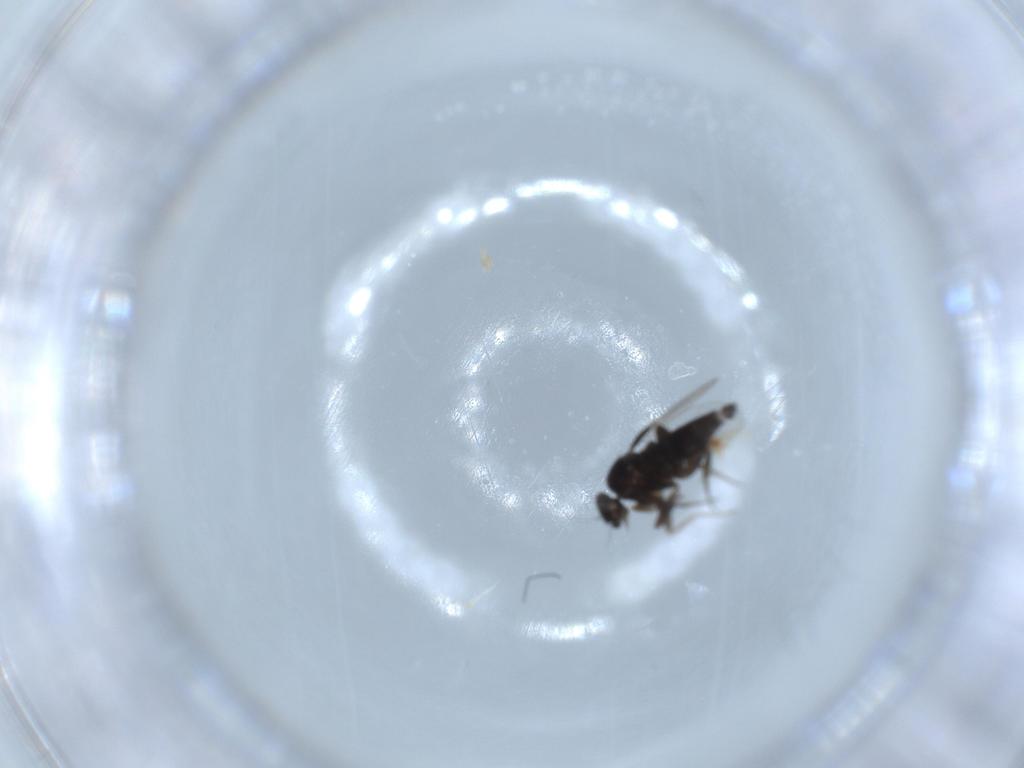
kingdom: Animalia
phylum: Arthropoda
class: Insecta
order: Diptera
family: Phoridae
